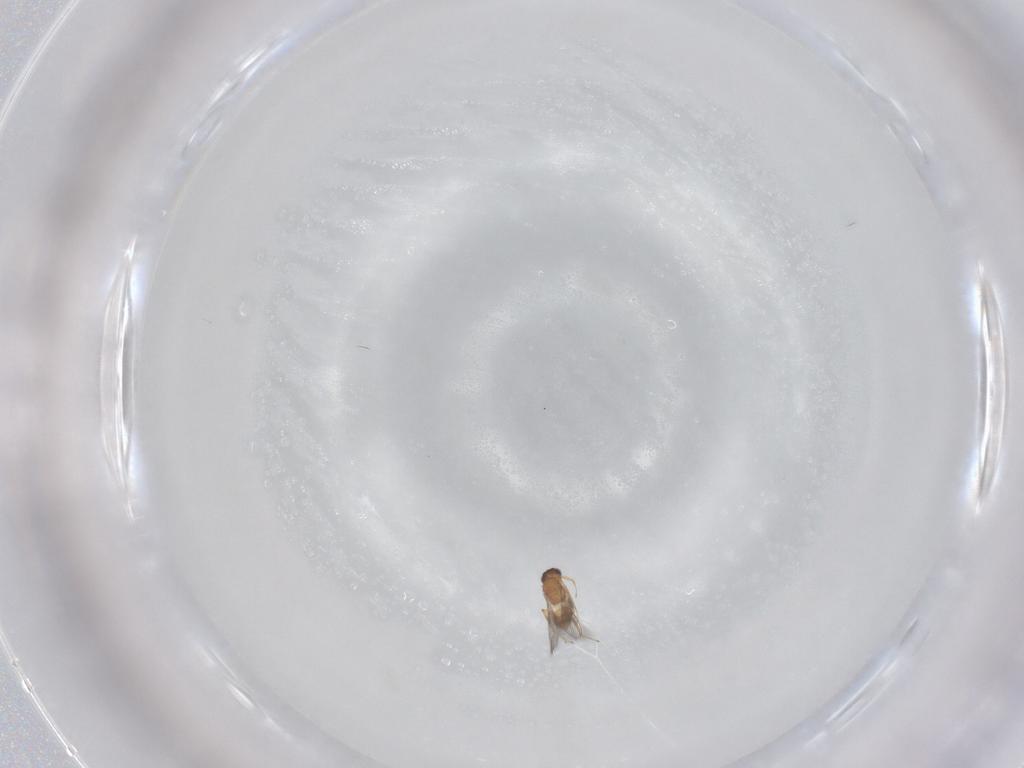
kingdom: Animalia
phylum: Arthropoda
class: Insecta
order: Hymenoptera
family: Mymaridae
